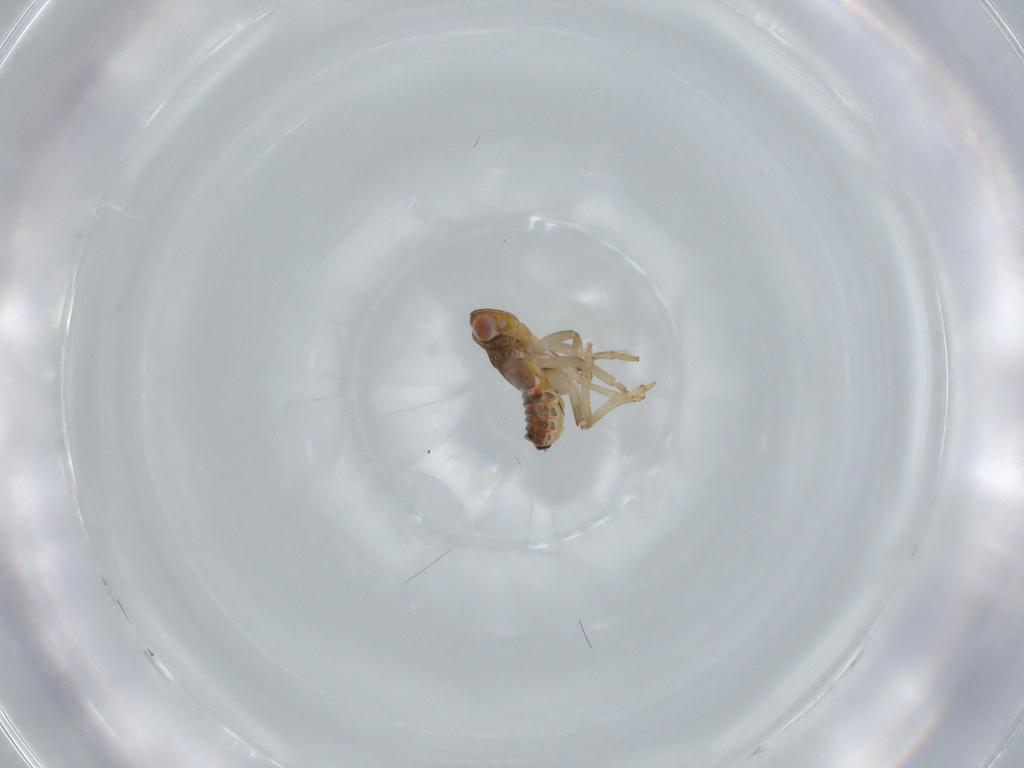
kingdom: Animalia
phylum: Arthropoda
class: Insecta
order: Hemiptera
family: Issidae
